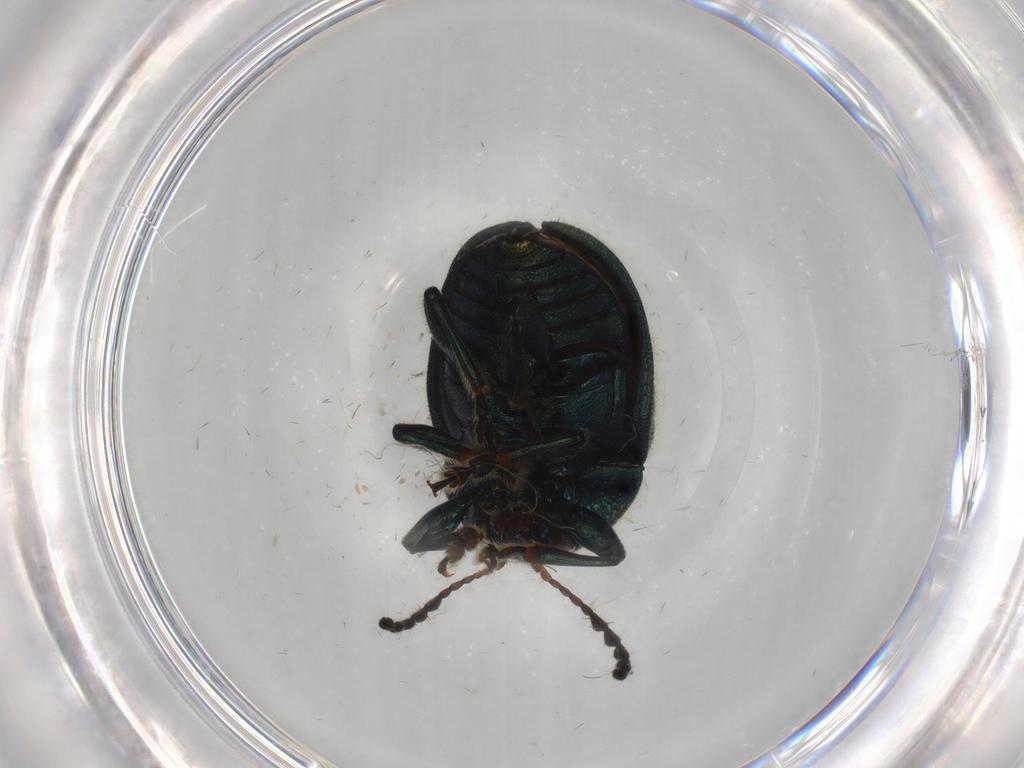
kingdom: Animalia
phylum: Arthropoda
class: Insecta
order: Coleoptera
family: Chrysomelidae
